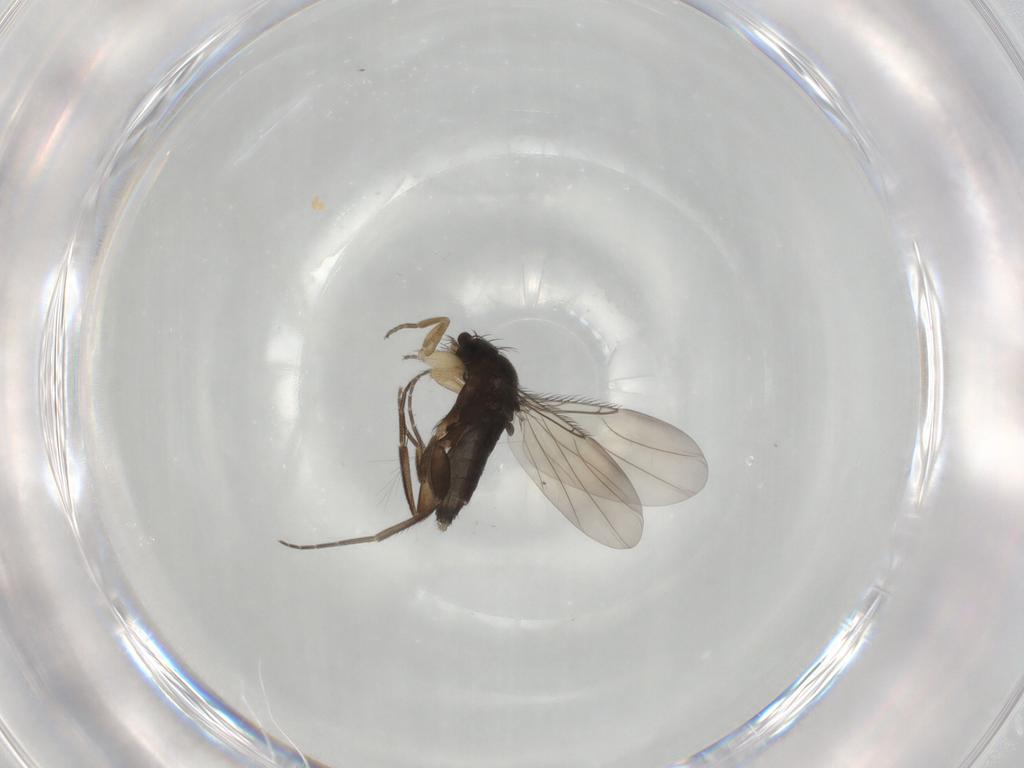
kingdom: Animalia
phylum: Arthropoda
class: Insecta
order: Diptera
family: Phoridae
